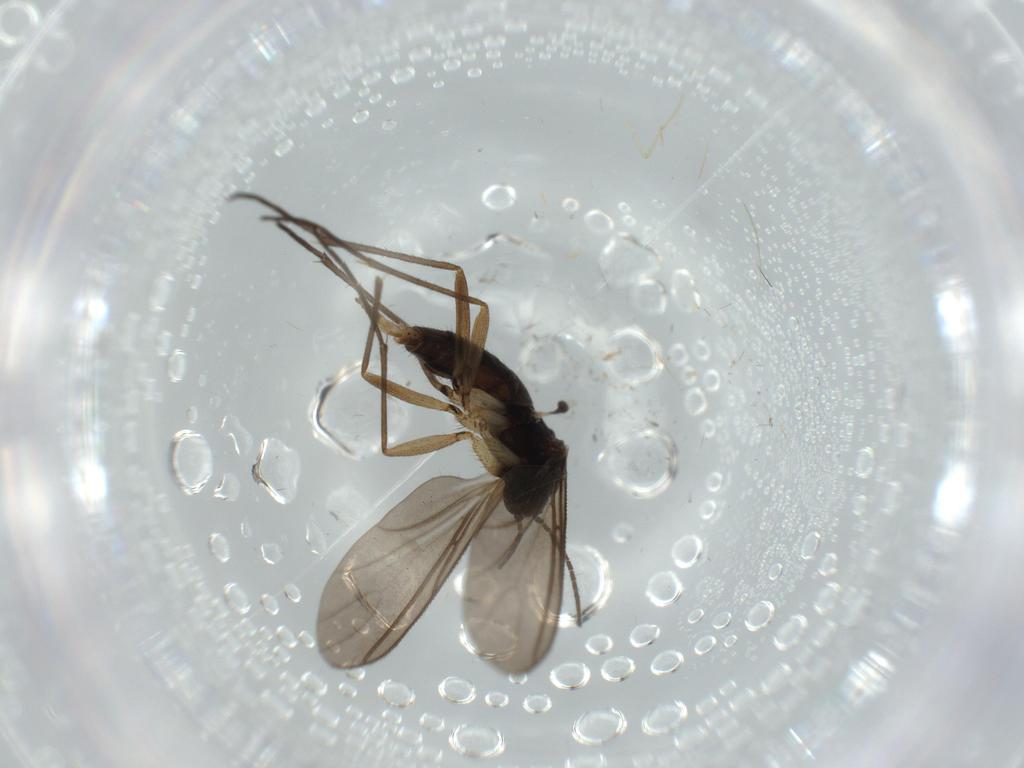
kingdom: Animalia
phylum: Arthropoda
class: Insecta
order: Diptera
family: Sciaridae
